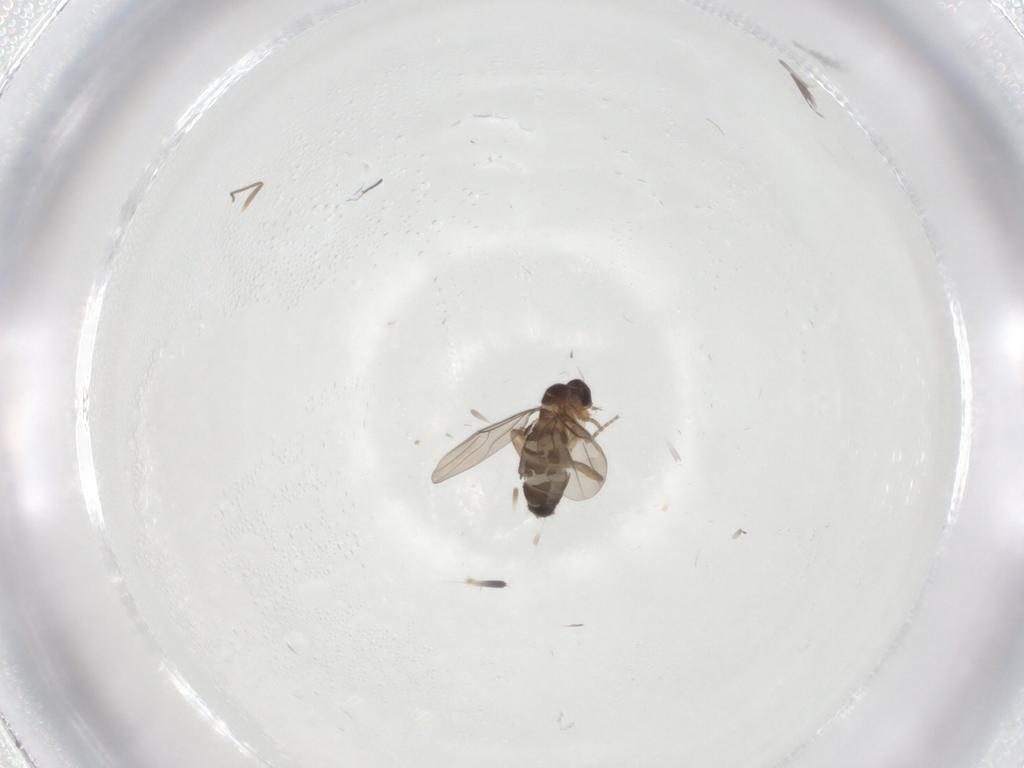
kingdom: Animalia
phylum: Arthropoda
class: Insecta
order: Diptera
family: Chironomidae
